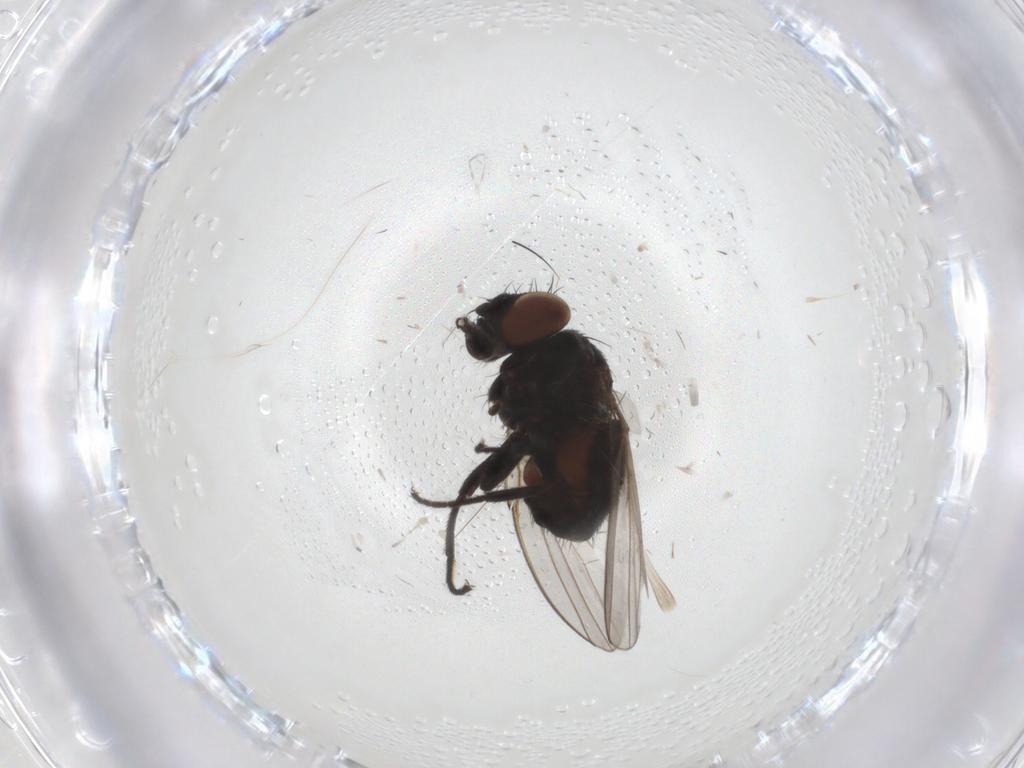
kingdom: Animalia
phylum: Arthropoda
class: Insecta
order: Diptera
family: Milichiidae
